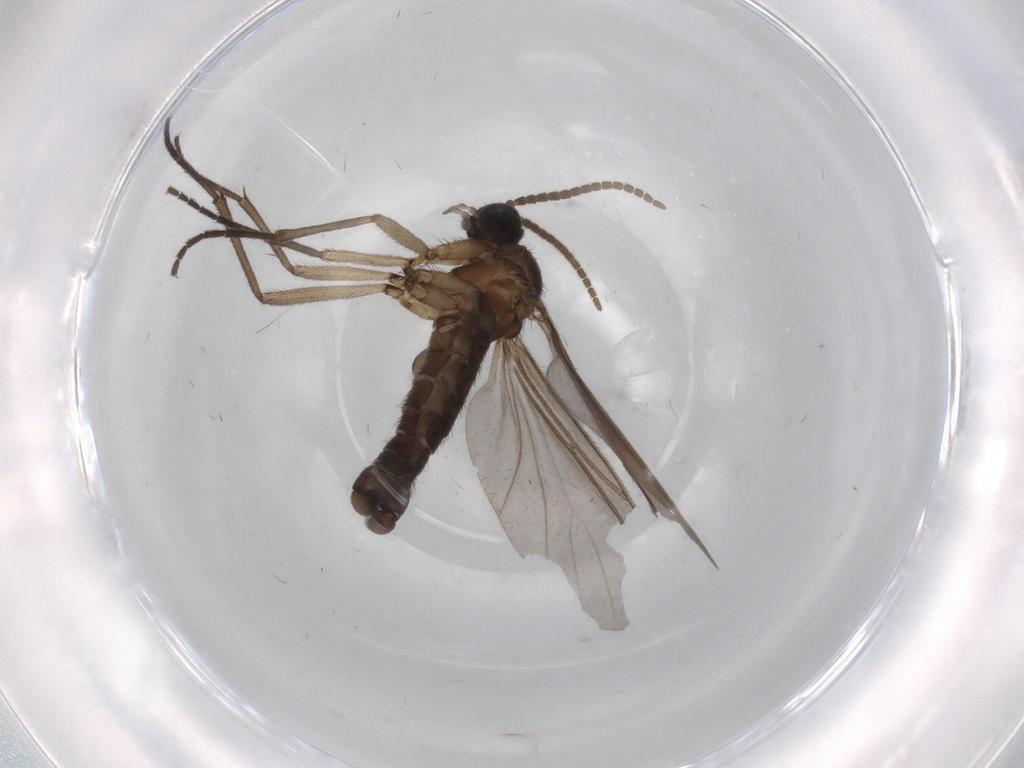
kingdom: Animalia
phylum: Arthropoda
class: Insecta
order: Diptera
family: Sciaridae
